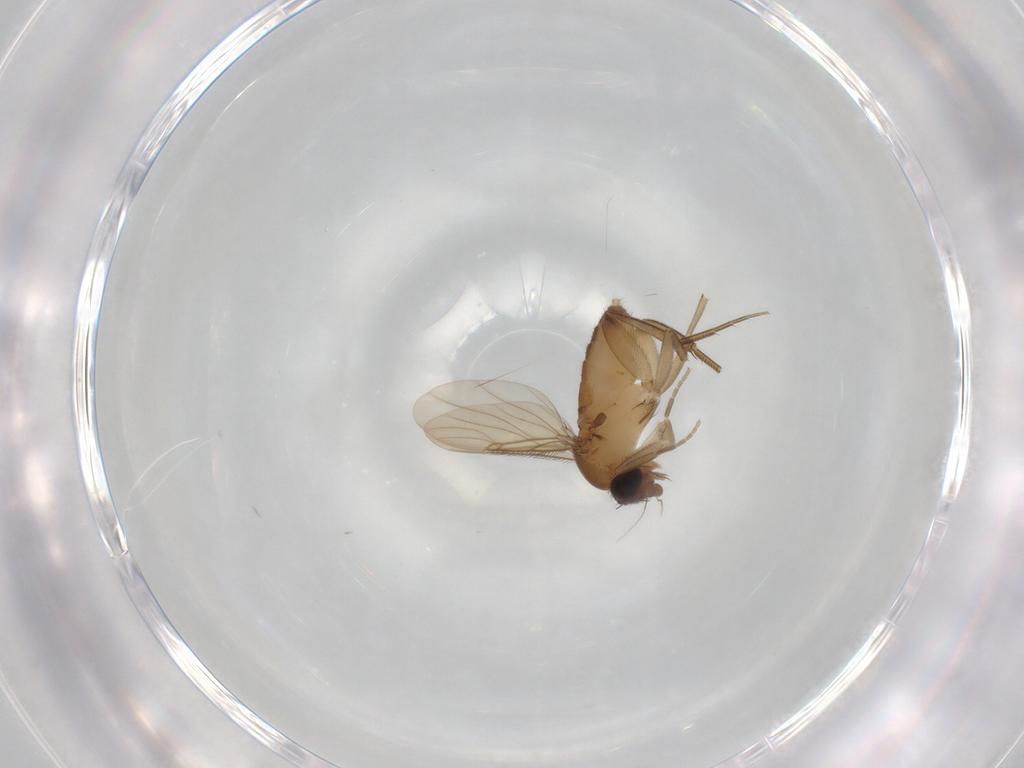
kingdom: Animalia
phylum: Arthropoda
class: Insecta
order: Diptera
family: Phoridae
